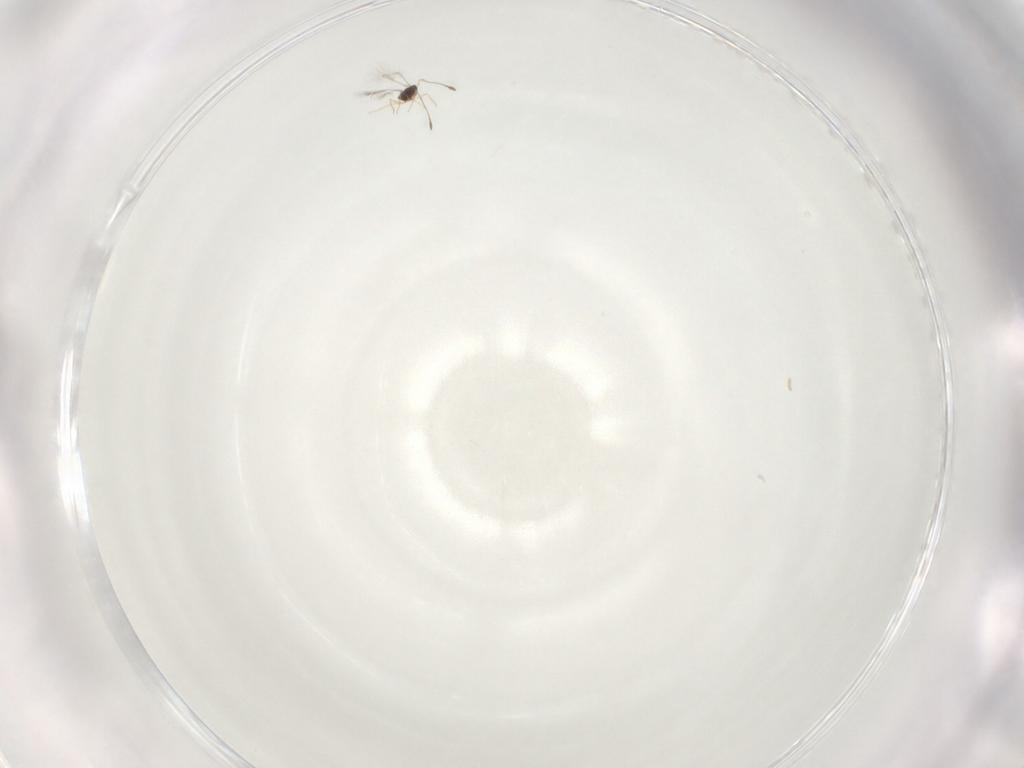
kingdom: Animalia
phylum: Arthropoda
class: Insecta
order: Hymenoptera
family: Mymaridae
